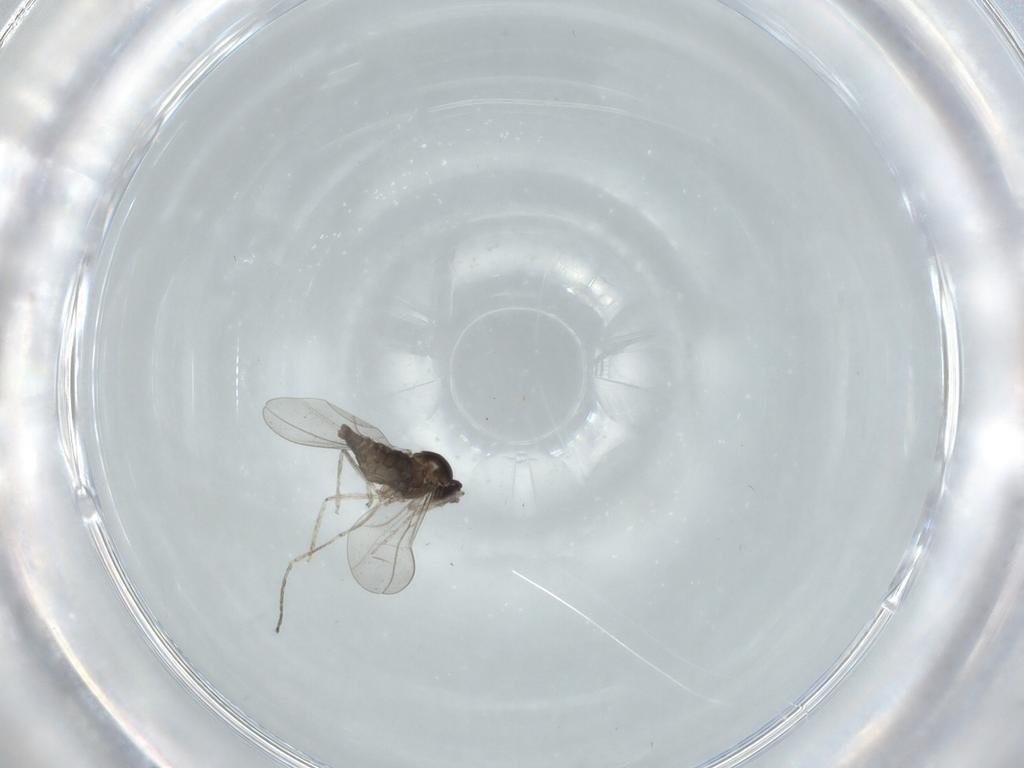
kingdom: Animalia
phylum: Arthropoda
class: Insecta
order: Diptera
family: Cecidomyiidae
